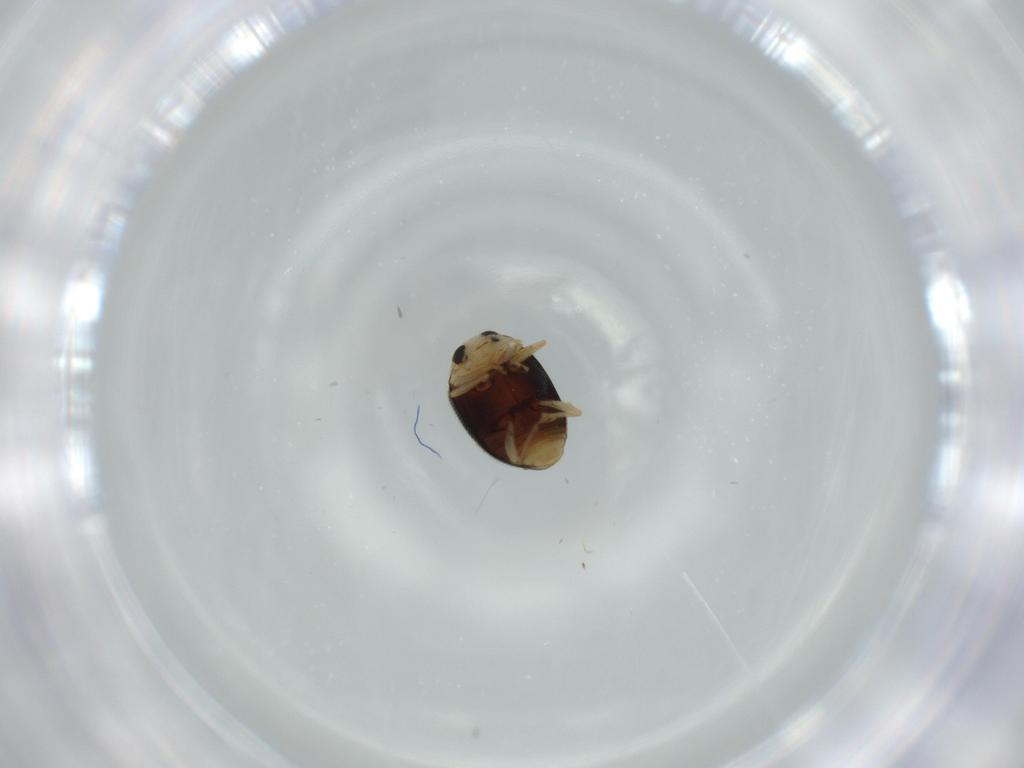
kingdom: Animalia
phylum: Arthropoda
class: Insecta
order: Coleoptera
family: Coccinellidae
